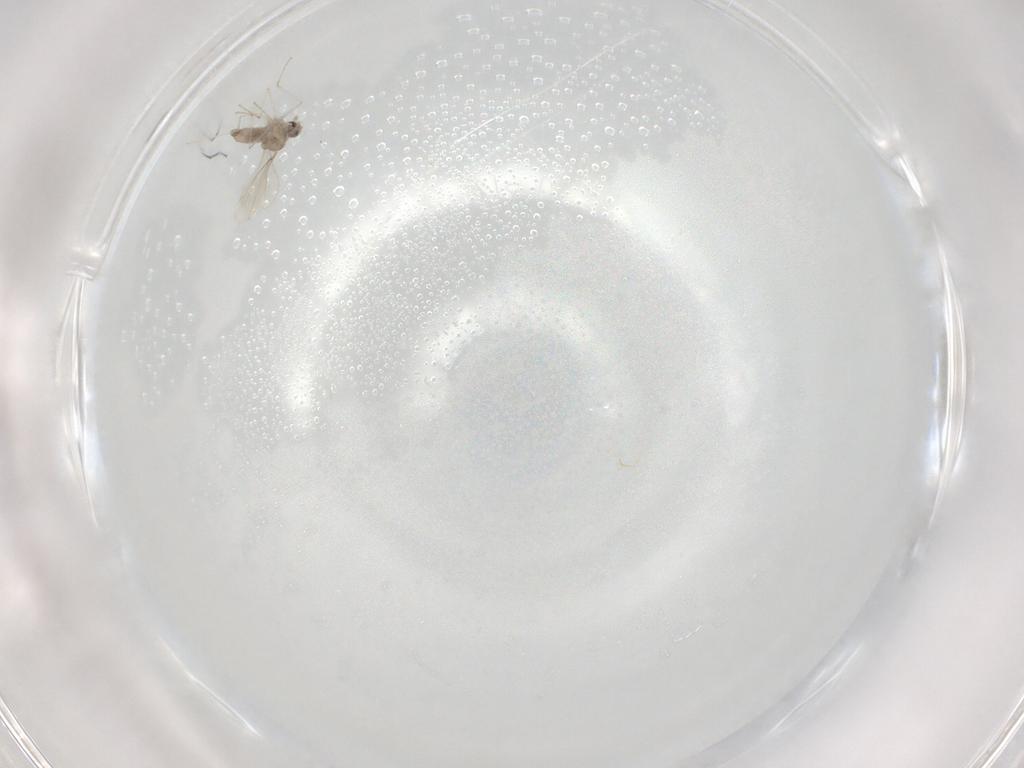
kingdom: Animalia
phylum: Arthropoda
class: Insecta
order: Diptera
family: Cecidomyiidae
